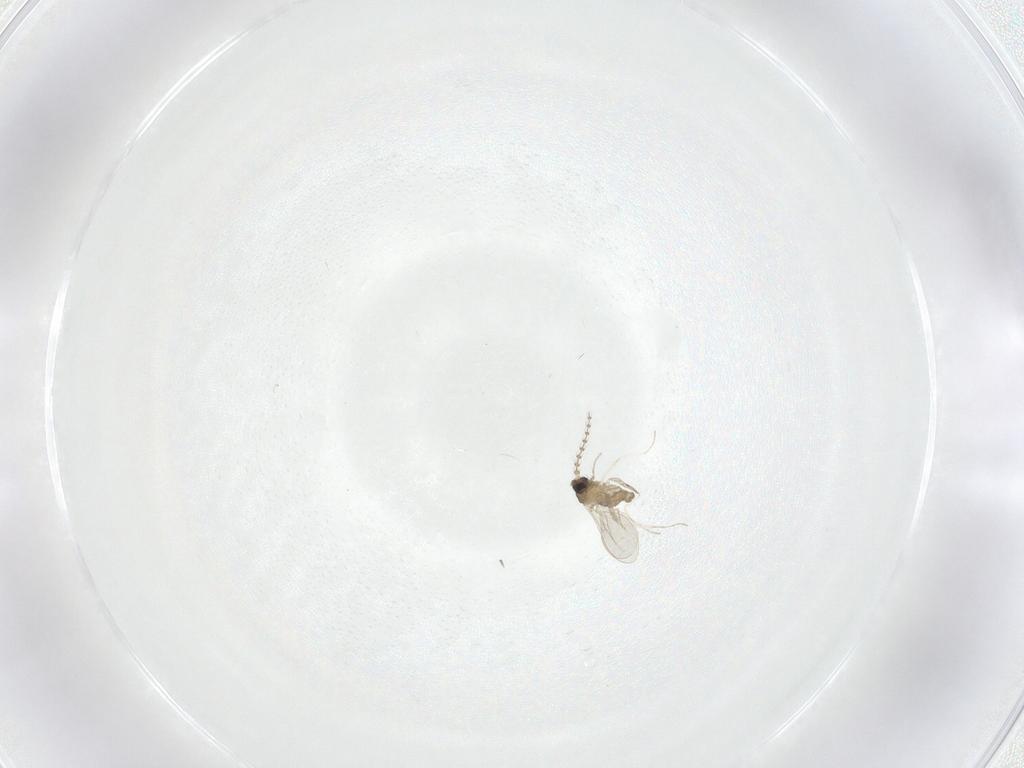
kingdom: Animalia
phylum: Arthropoda
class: Insecta
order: Diptera
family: Cecidomyiidae
